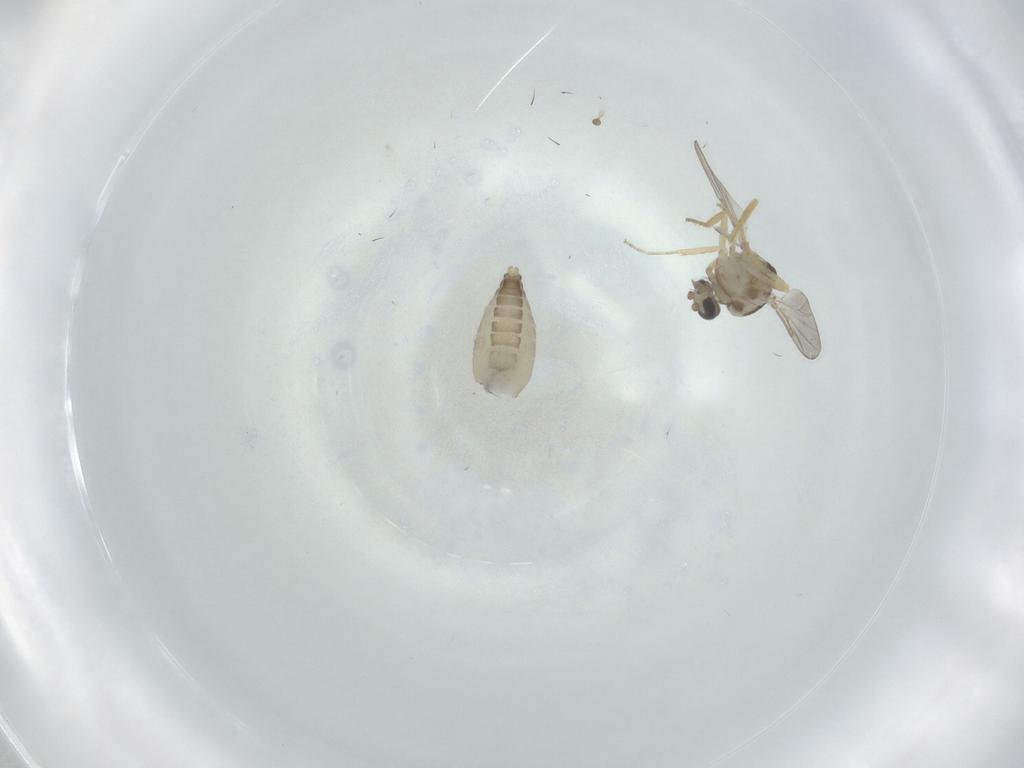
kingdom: Animalia
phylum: Arthropoda
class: Insecta
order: Diptera
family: Ceratopogonidae
